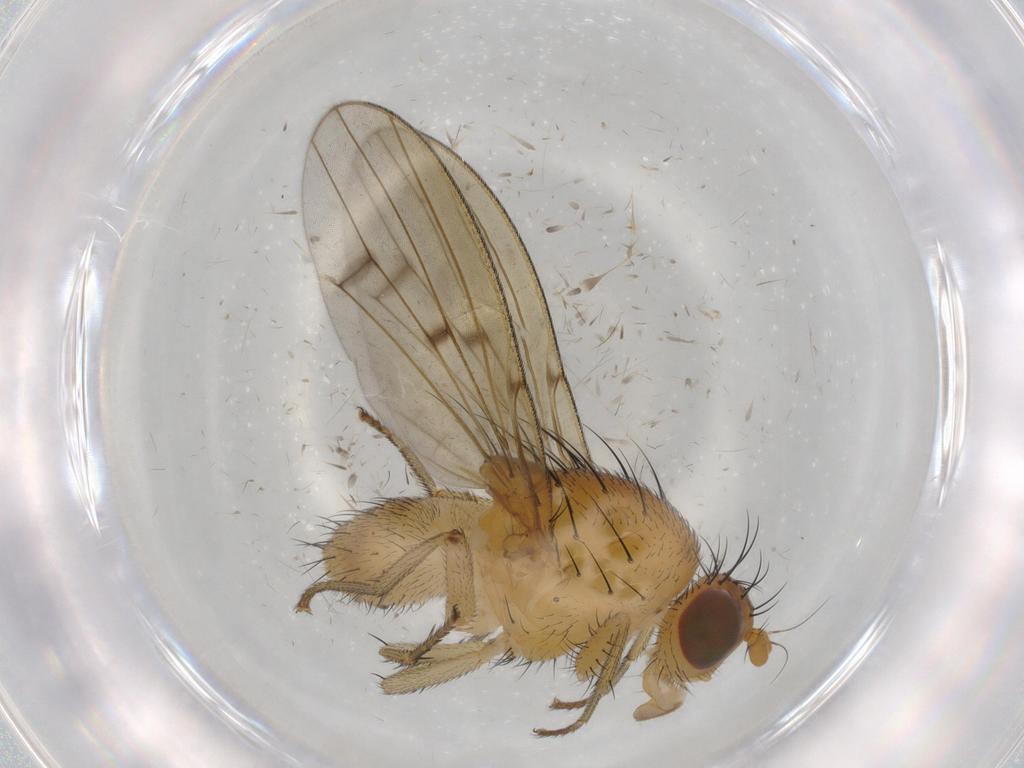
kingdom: Animalia
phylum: Arthropoda
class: Insecta
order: Diptera
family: Cecidomyiidae
